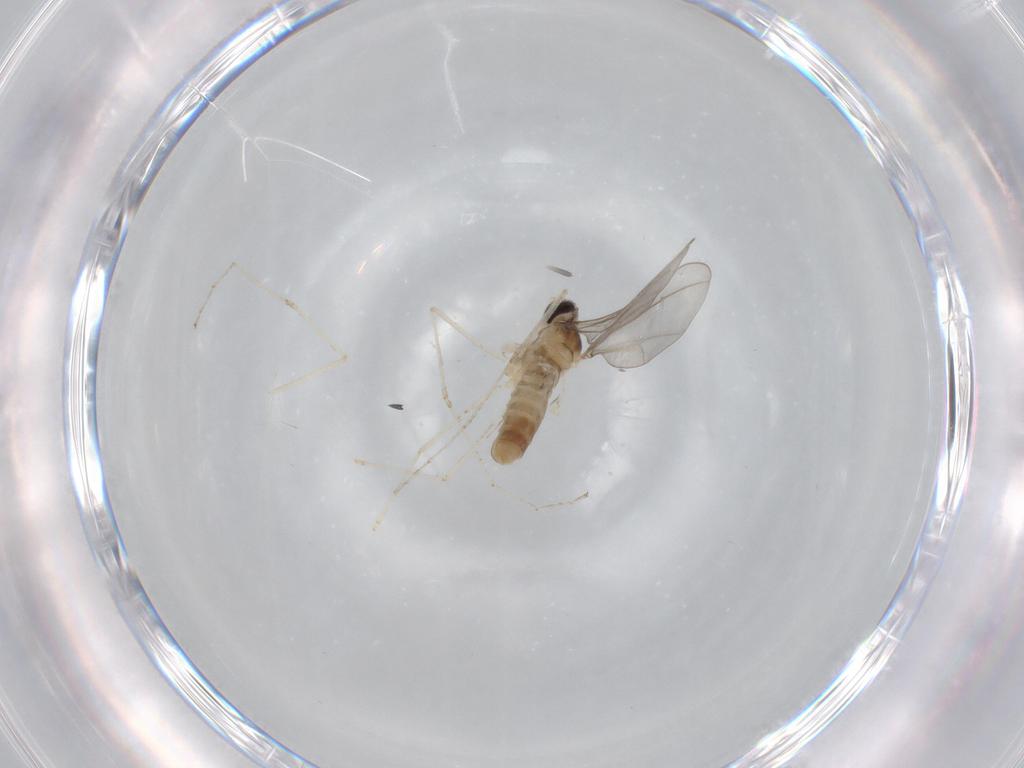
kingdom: Animalia
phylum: Arthropoda
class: Insecta
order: Diptera
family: Cecidomyiidae
